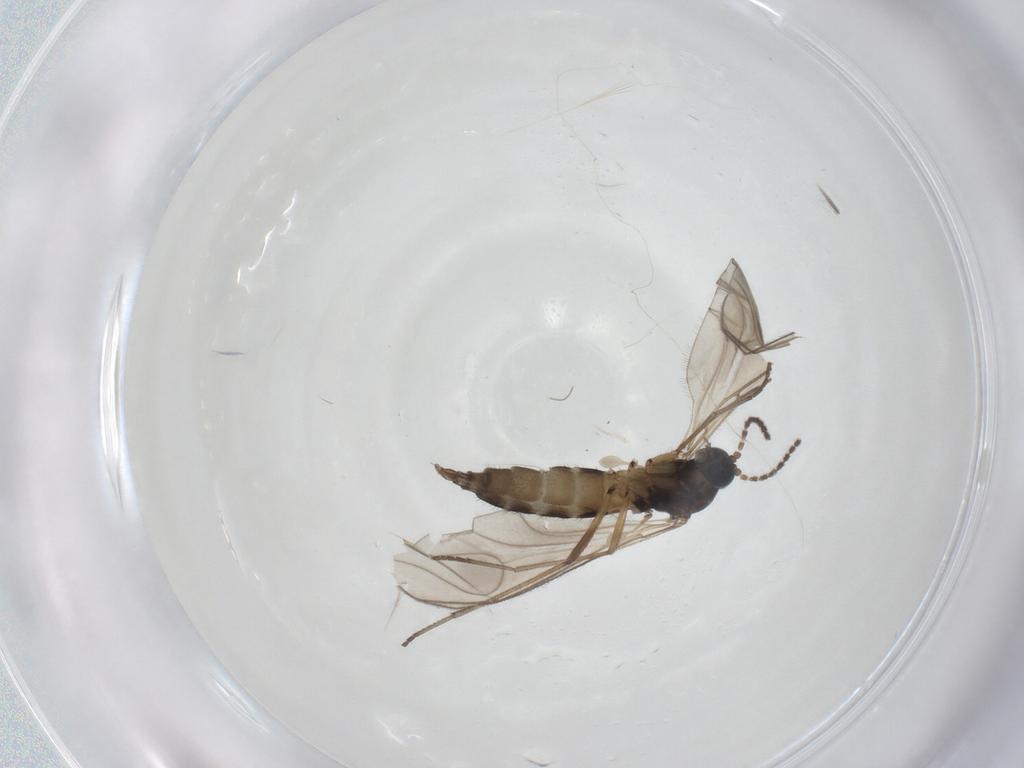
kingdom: Animalia
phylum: Arthropoda
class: Insecta
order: Diptera
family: Sciaridae
